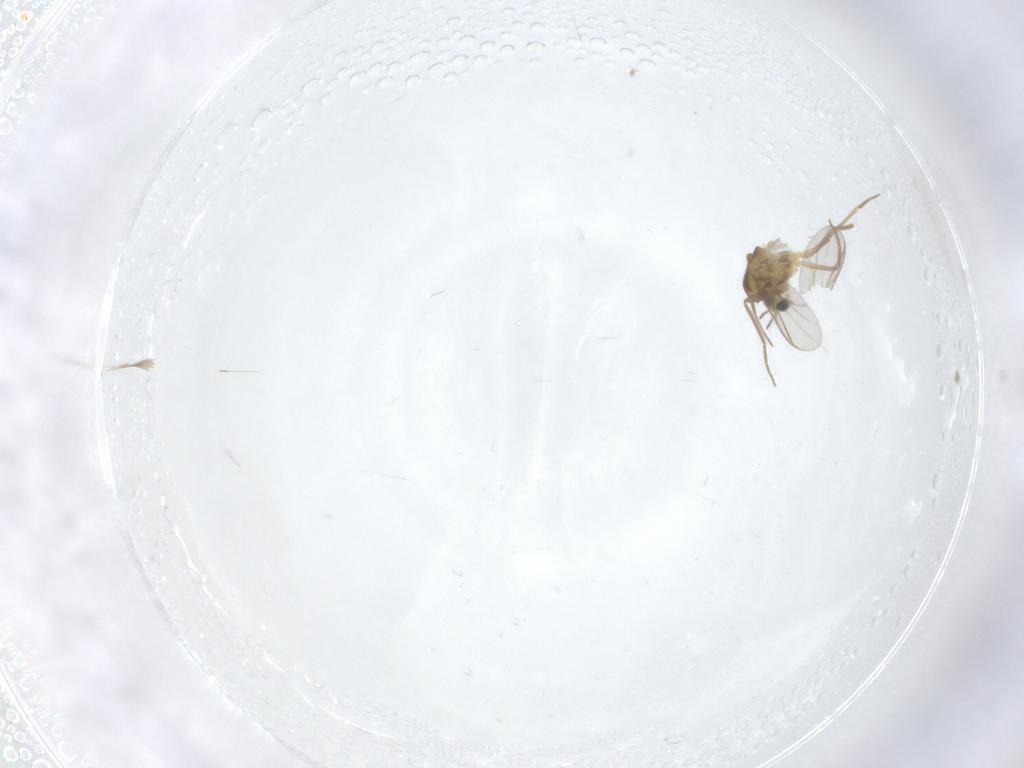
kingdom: Animalia
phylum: Arthropoda
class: Insecta
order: Diptera
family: Chironomidae
